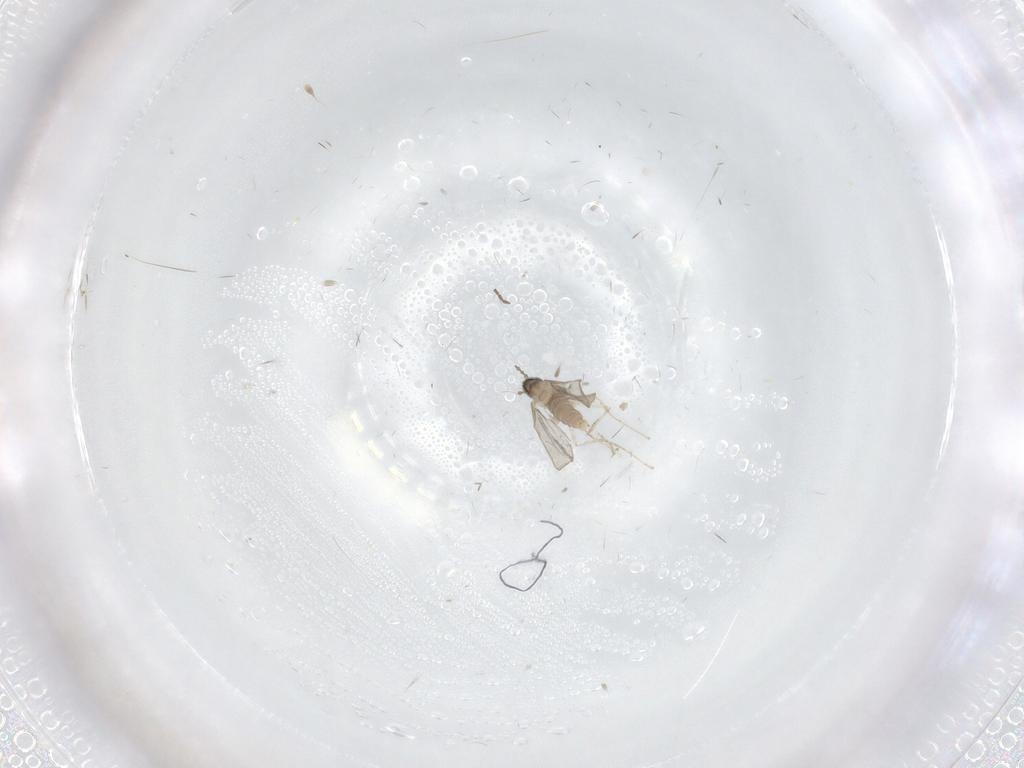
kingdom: Animalia
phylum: Arthropoda
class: Insecta
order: Diptera
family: Cecidomyiidae
